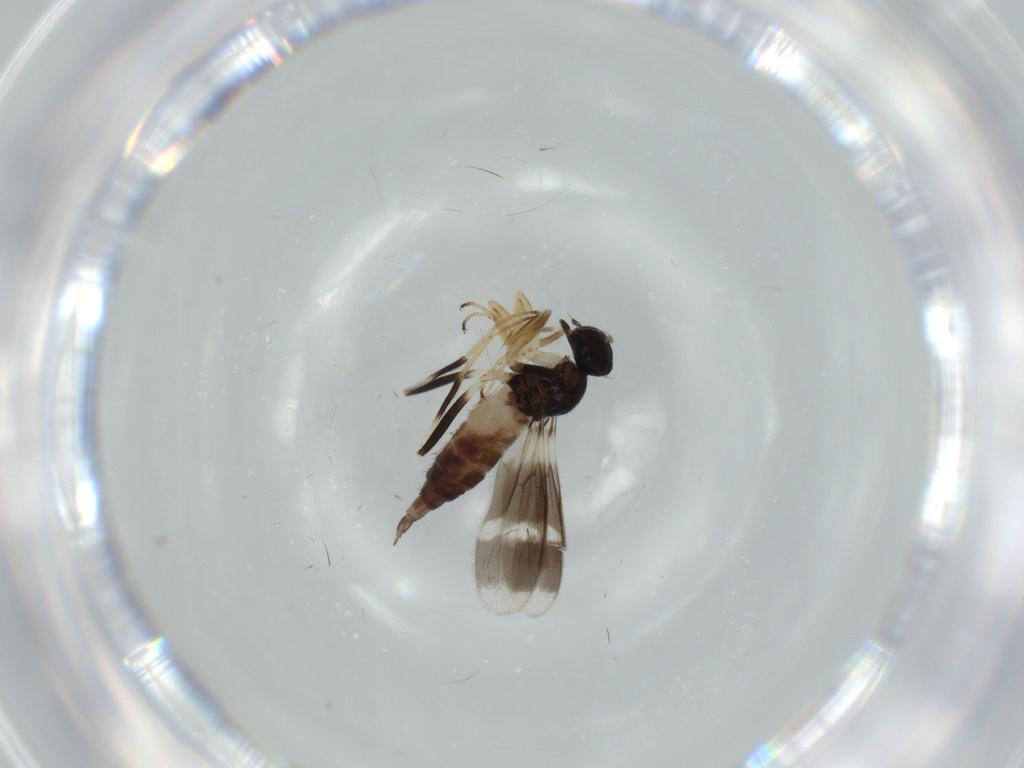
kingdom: Animalia
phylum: Arthropoda
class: Insecta
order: Diptera
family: Hybotidae
